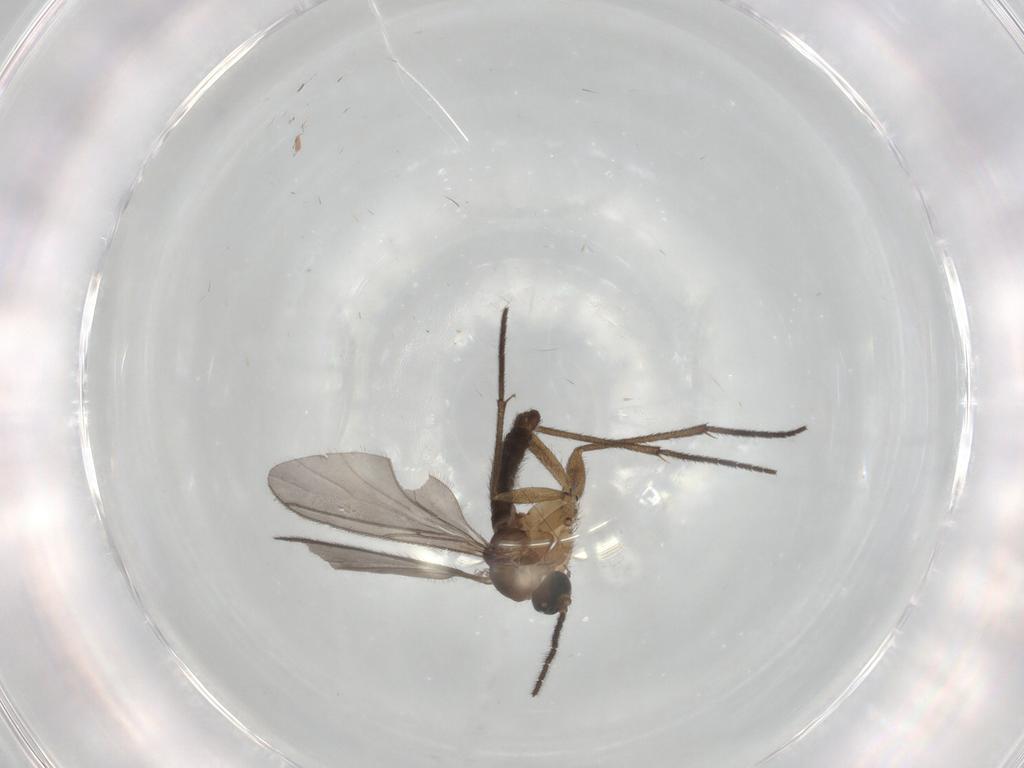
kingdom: Animalia
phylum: Arthropoda
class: Insecta
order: Diptera
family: Sciaridae
